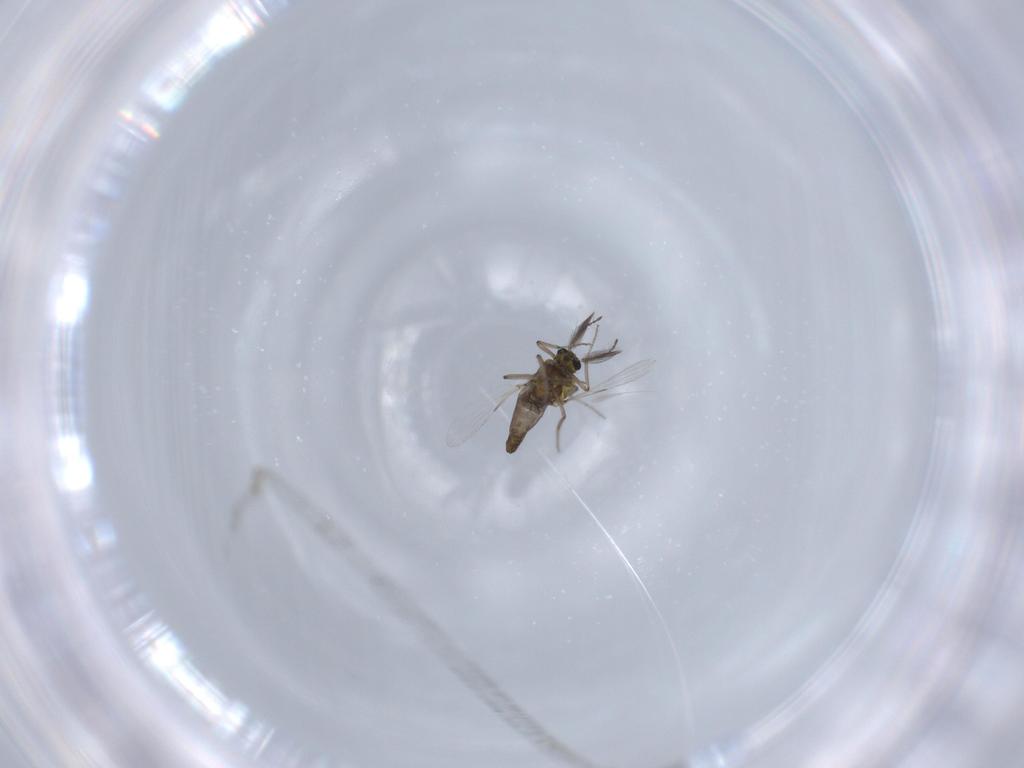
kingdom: Animalia
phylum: Arthropoda
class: Insecta
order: Diptera
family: Ceratopogonidae
